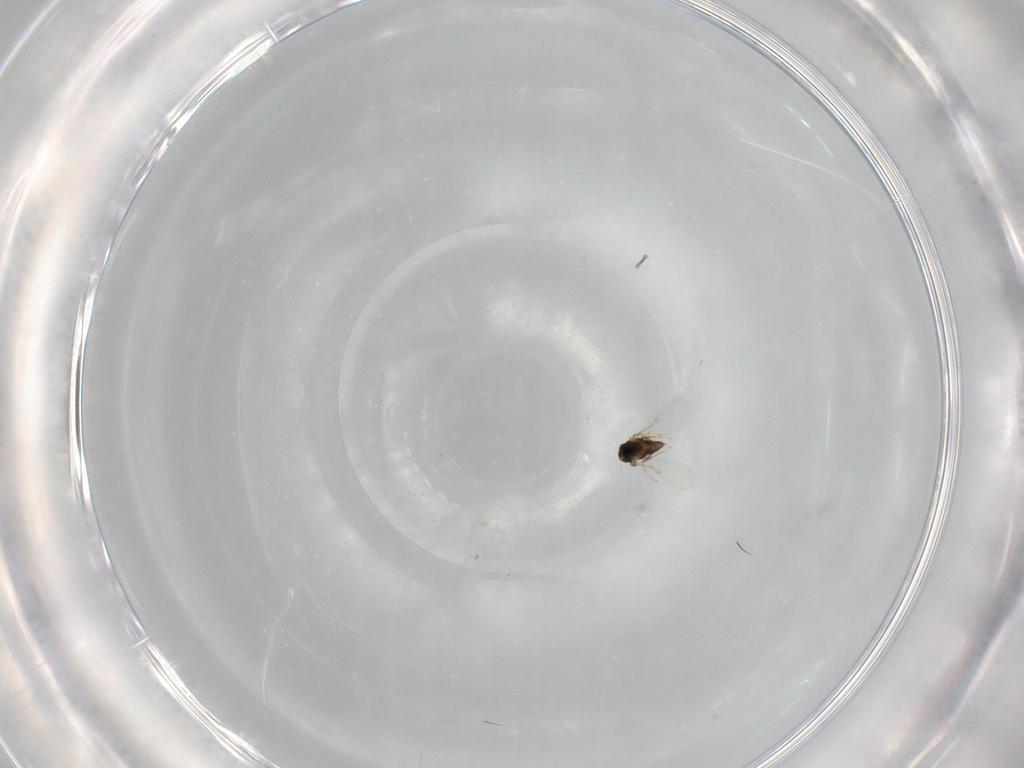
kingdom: Animalia
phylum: Arthropoda
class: Insecta
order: Hymenoptera
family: Encyrtidae
